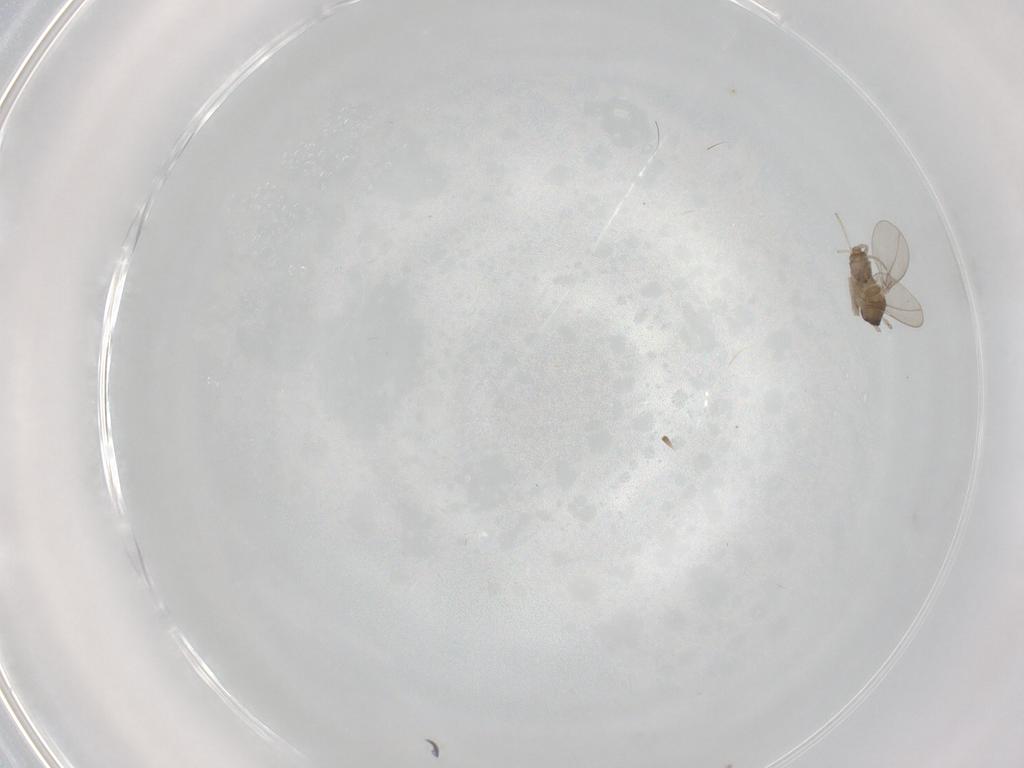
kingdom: Animalia
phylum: Arthropoda
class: Insecta
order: Diptera
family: Cecidomyiidae
